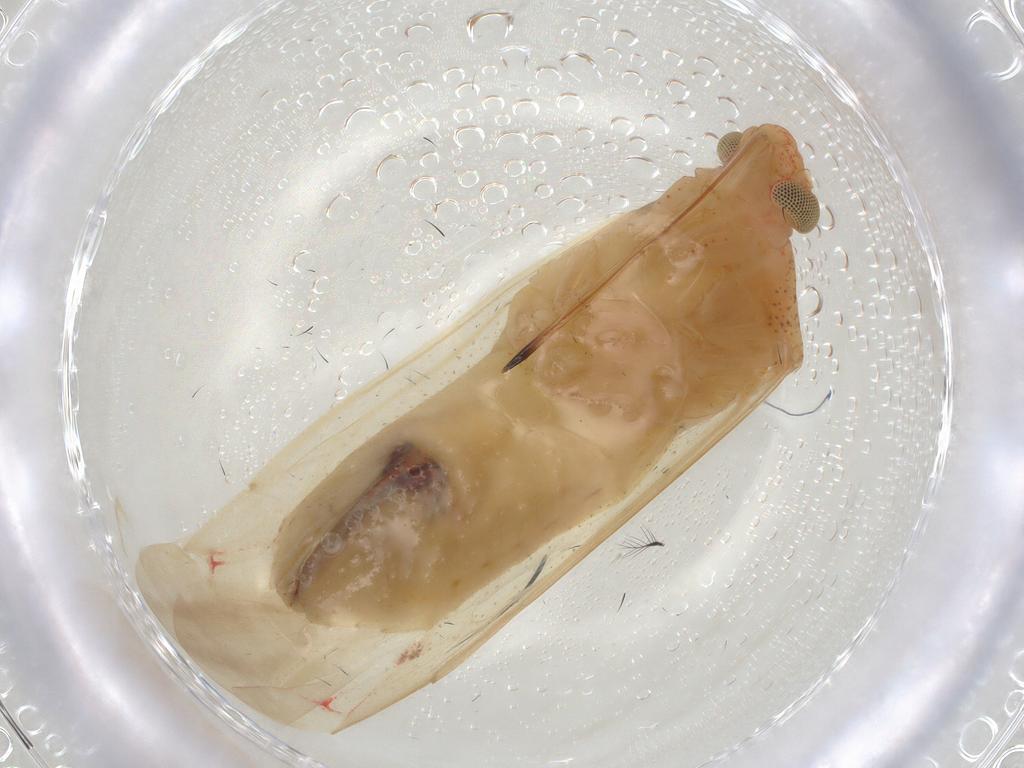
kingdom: Animalia
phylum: Arthropoda
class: Insecta
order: Hemiptera
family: Miridae
